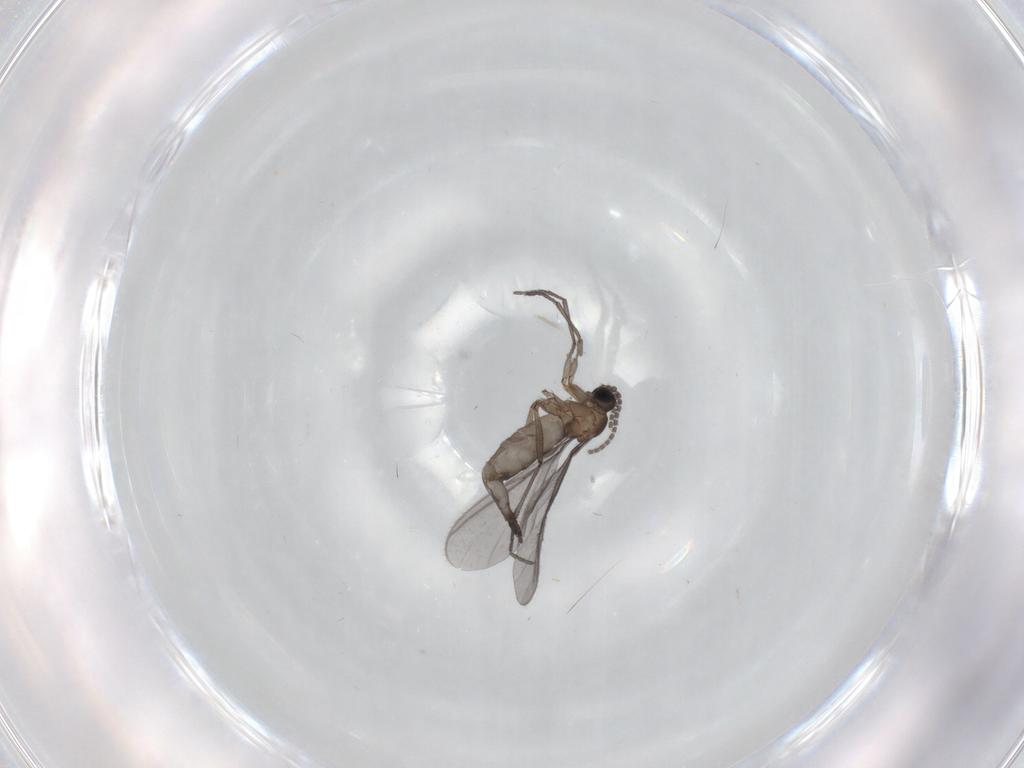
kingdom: Animalia
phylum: Arthropoda
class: Insecta
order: Diptera
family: Sciaridae
